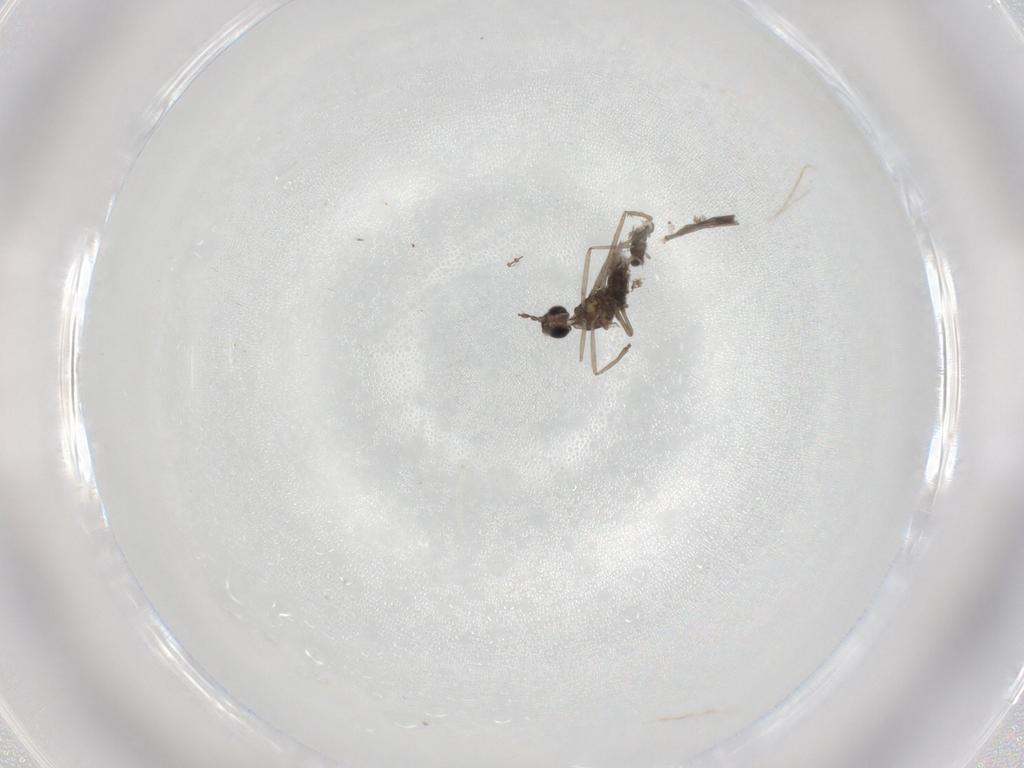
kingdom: Animalia
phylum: Arthropoda
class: Insecta
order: Diptera
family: Cecidomyiidae
